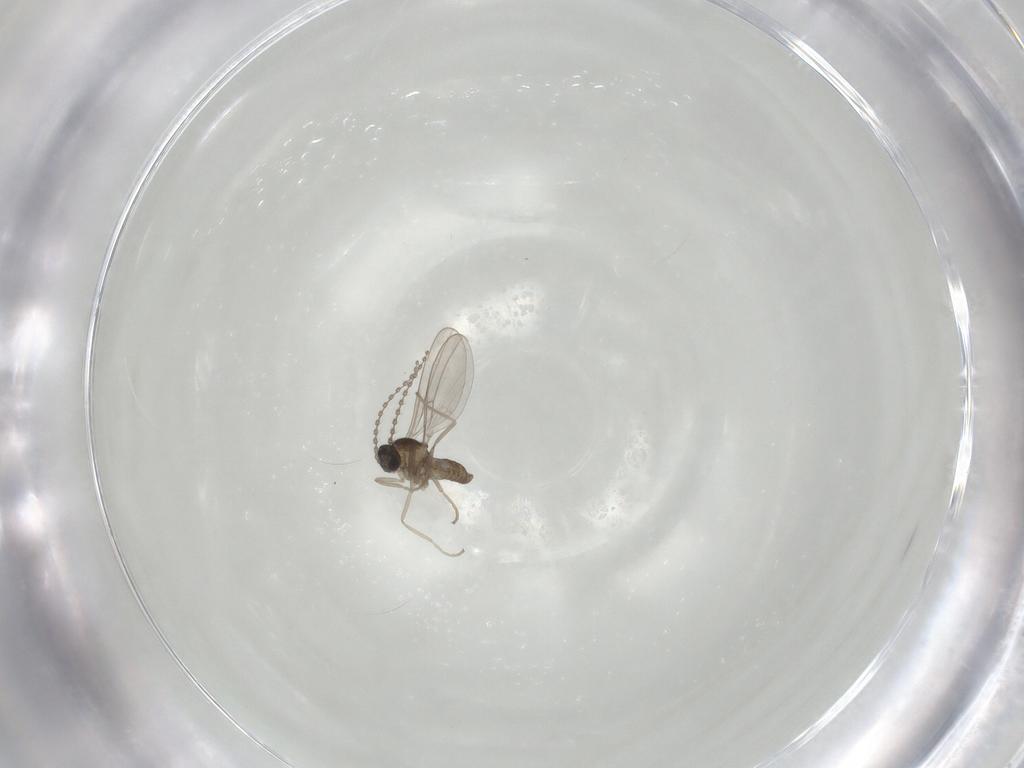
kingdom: Animalia
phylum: Arthropoda
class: Insecta
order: Diptera
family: Cecidomyiidae
